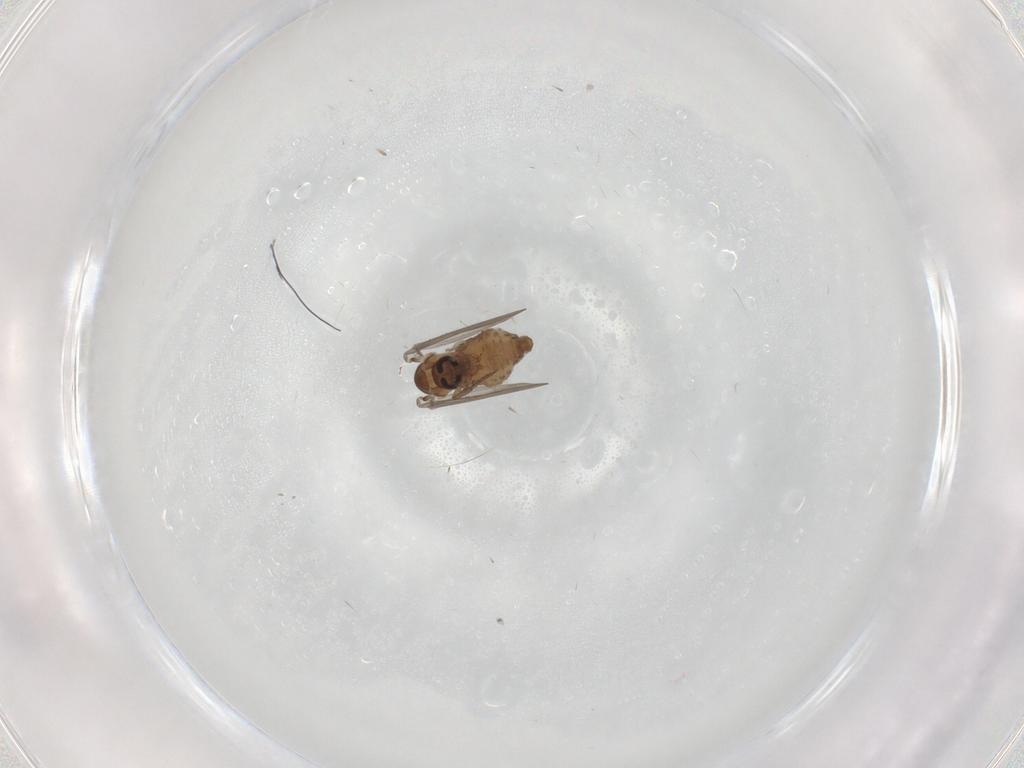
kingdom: Animalia
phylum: Arthropoda
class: Insecta
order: Diptera
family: Psychodidae
